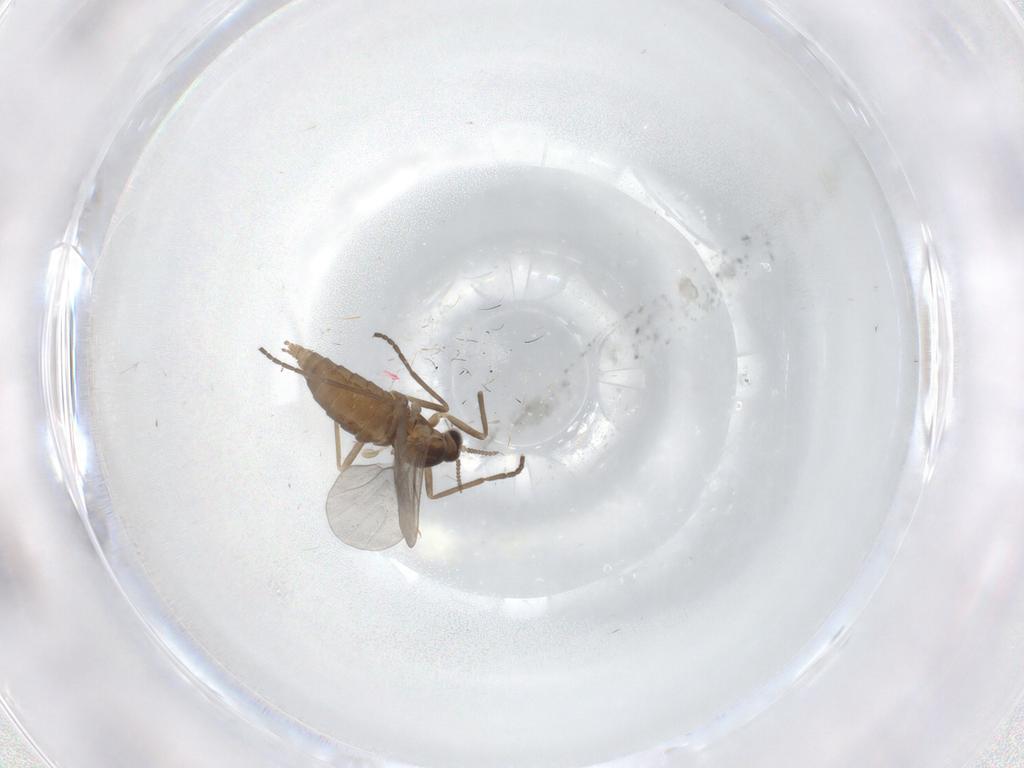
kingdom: Animalia
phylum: Arthropoda
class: Insecta
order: Diptera
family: Cecidomyiidae
